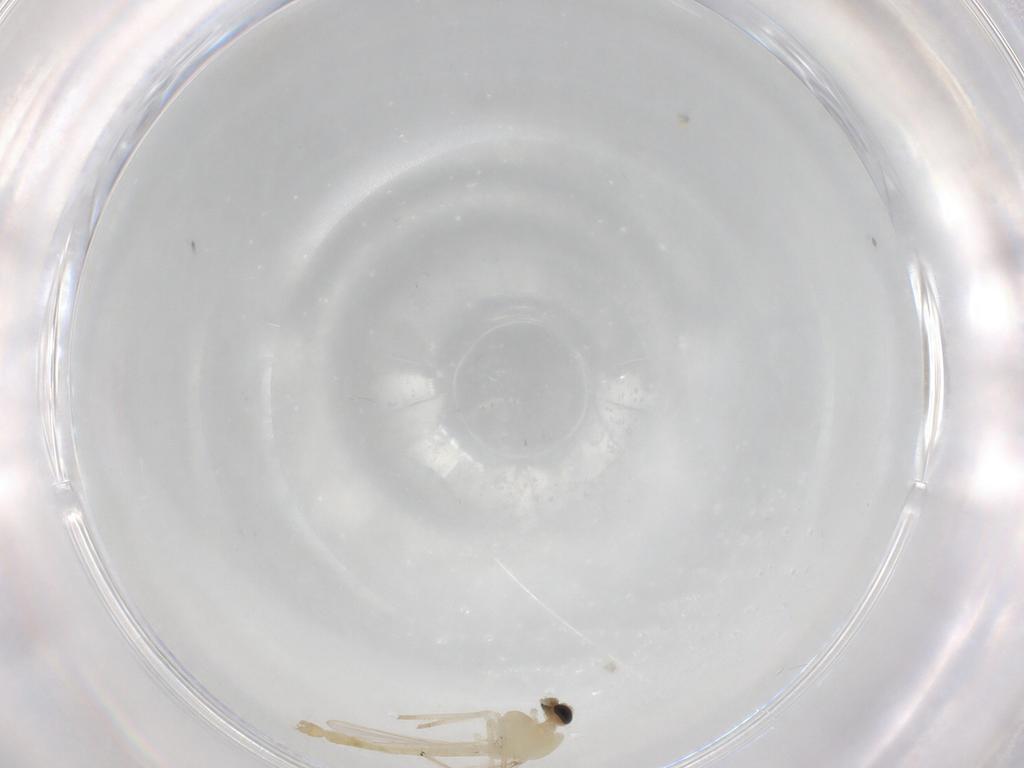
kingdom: Animalia
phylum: Arthropoda
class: Insecta
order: Diptera
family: Chironomidae
